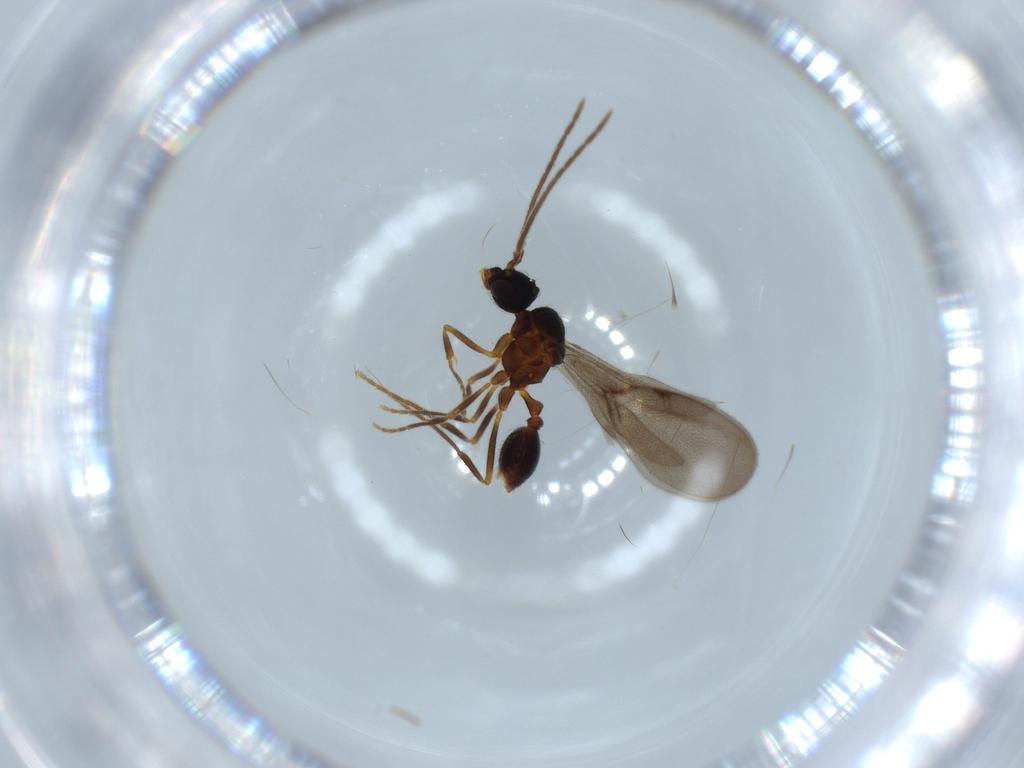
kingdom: Animalia
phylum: Arthropoda
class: Insecta
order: Hymenoptera
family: Formicidae
